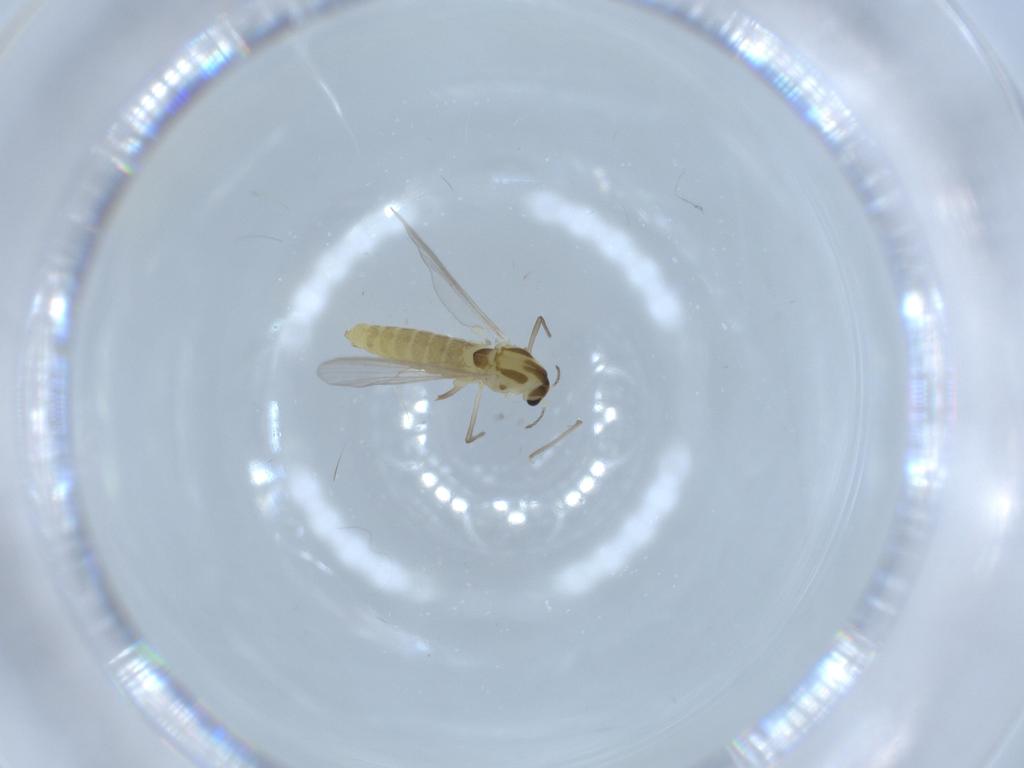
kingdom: Animalia
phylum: Arthropoda
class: Insecta
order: Diptera
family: Chironomidae
